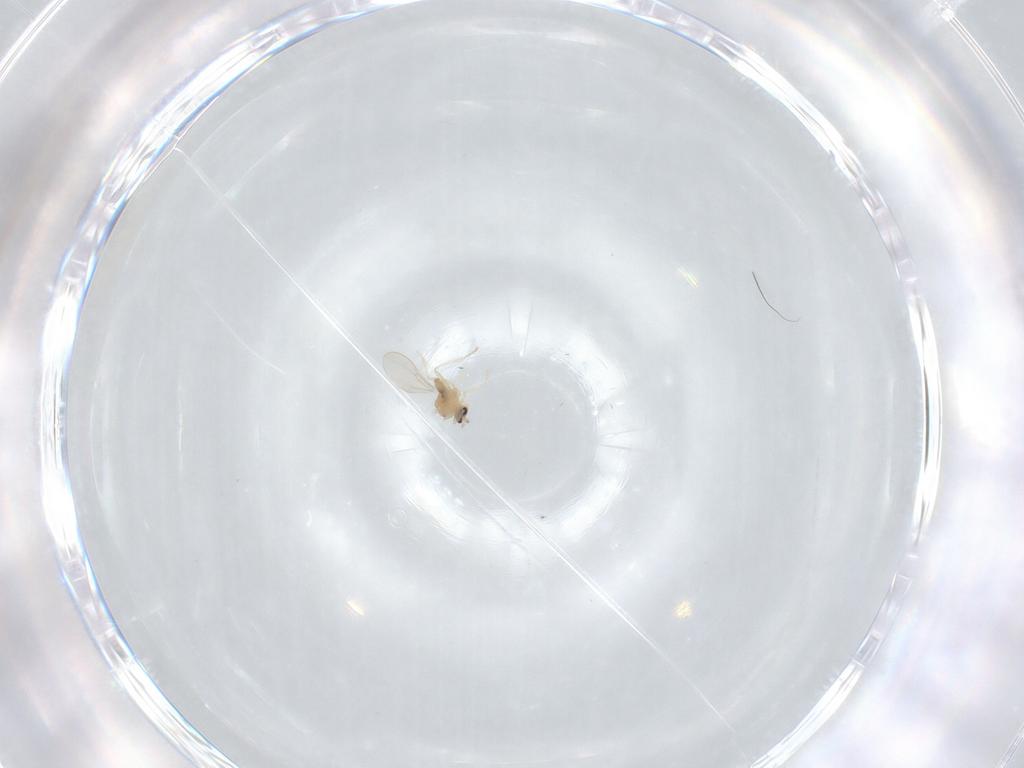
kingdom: Animalia
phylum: Arthropoda
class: Insecta
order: Diptera
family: Cecidomyiidae
